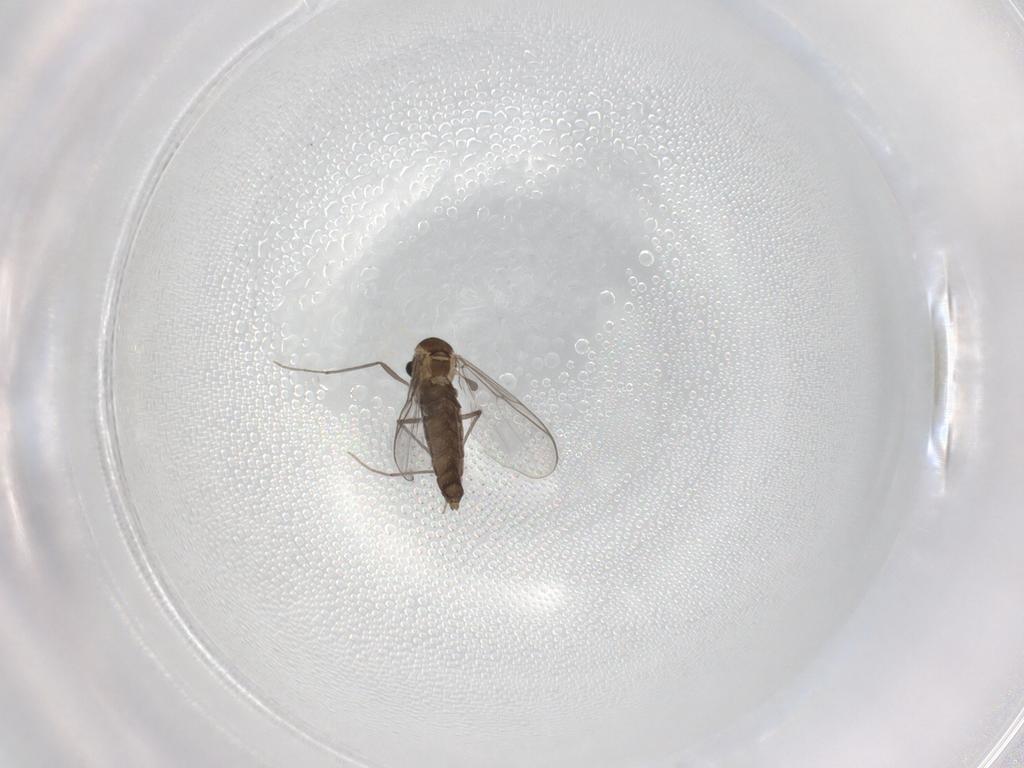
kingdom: Animalia
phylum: Arthropoda
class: Insecta
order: Diptera
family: Chironomidae
